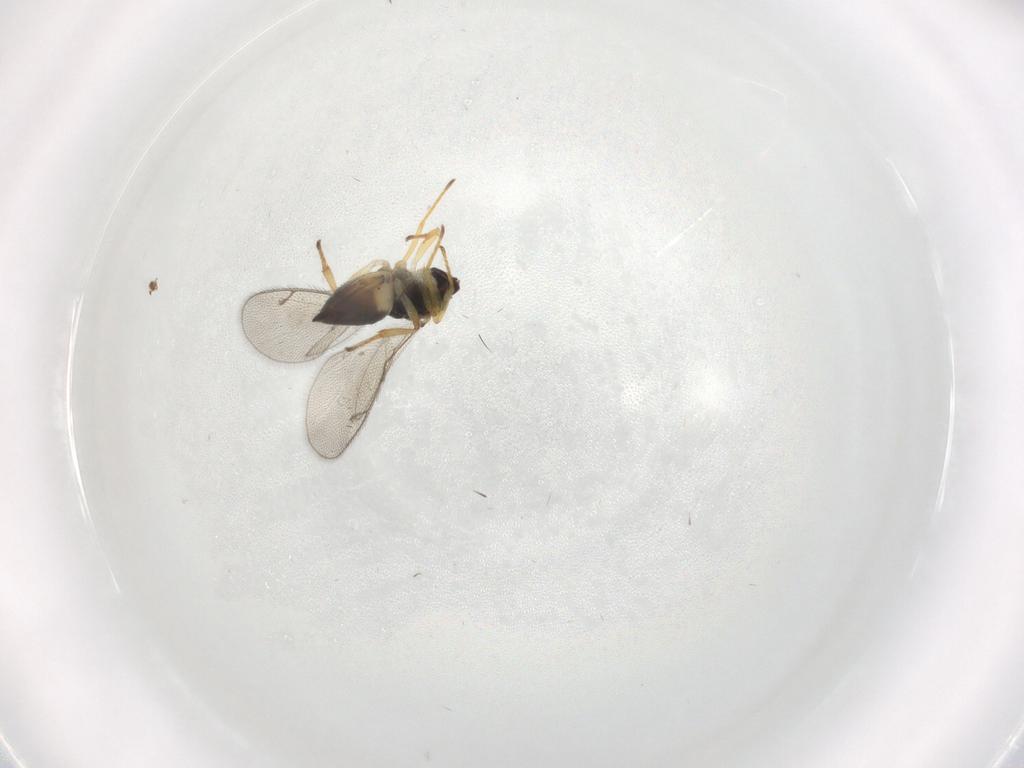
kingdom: Animalia
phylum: Arthropoda
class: Insecta
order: Hymenoptera
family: Pteromalidae
